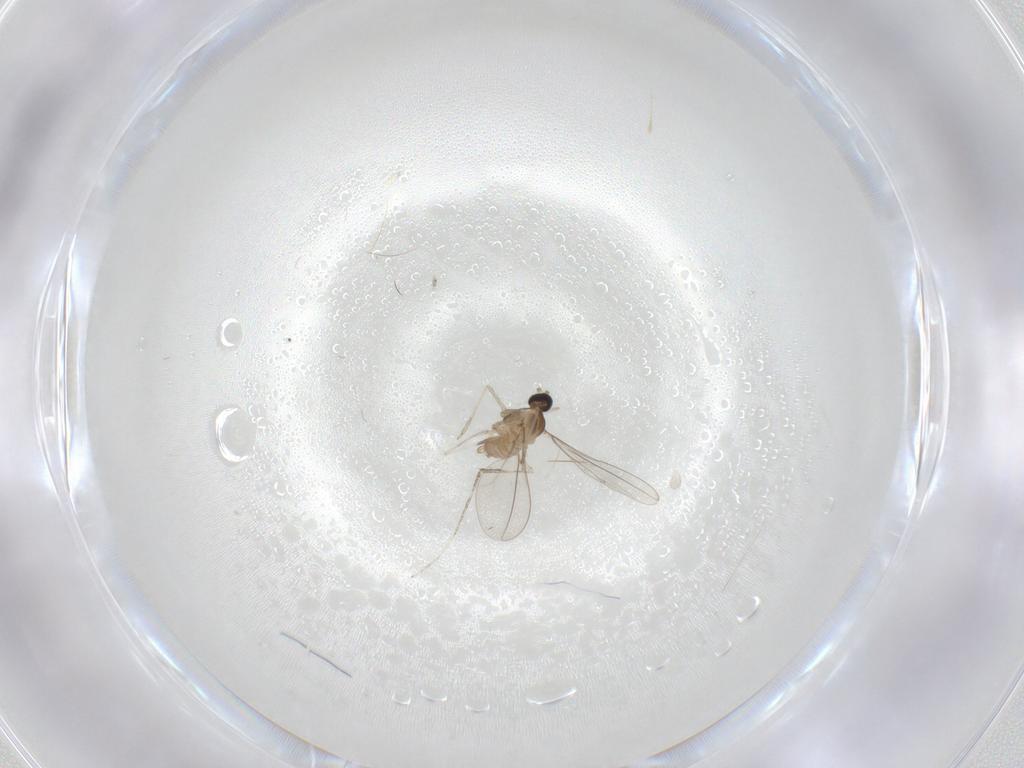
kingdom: Animalia
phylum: Arthropoda
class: Insecta
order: Diptera
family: Cecidomyiidae
